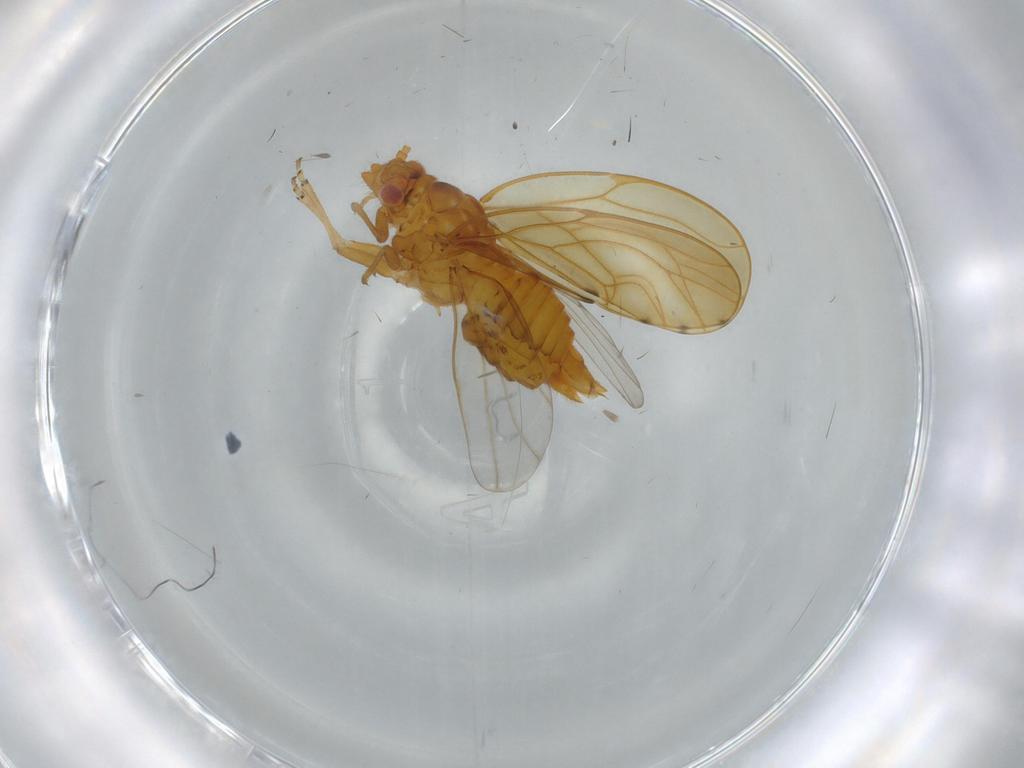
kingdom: Animalia
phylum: Arthropoda
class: Insecta
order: Hemiptera
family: Psylloidea_incertae_sedis
